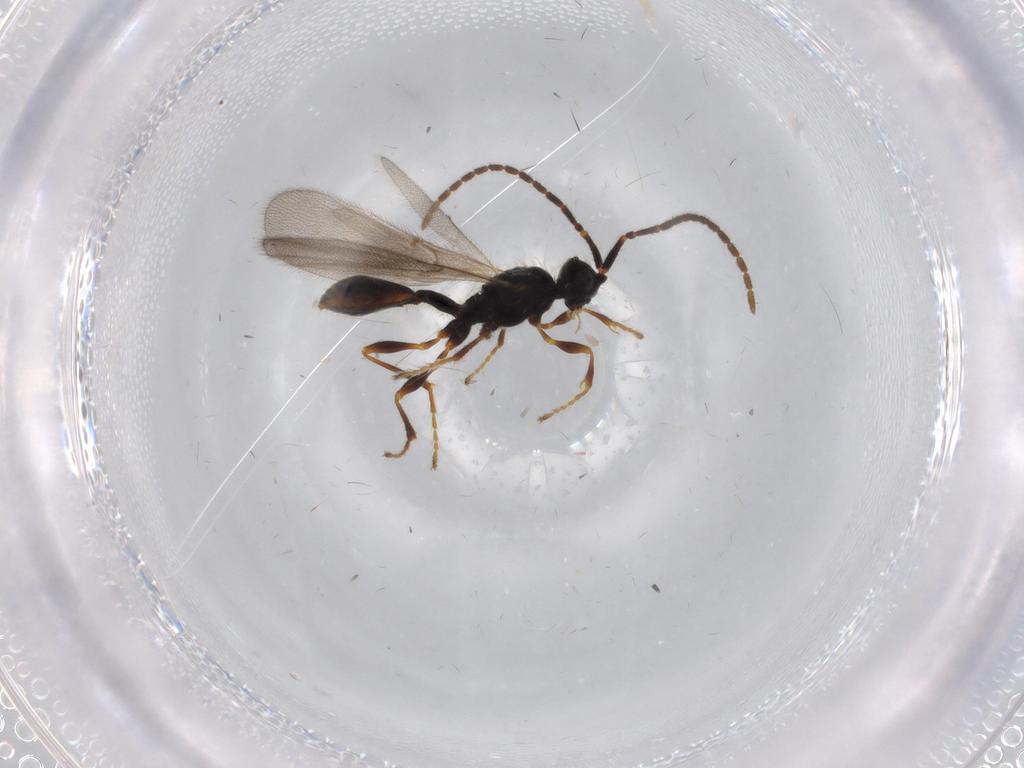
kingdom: Animalia
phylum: Arthropoda
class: Insecta
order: Hymenoptera
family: Diapriidae
